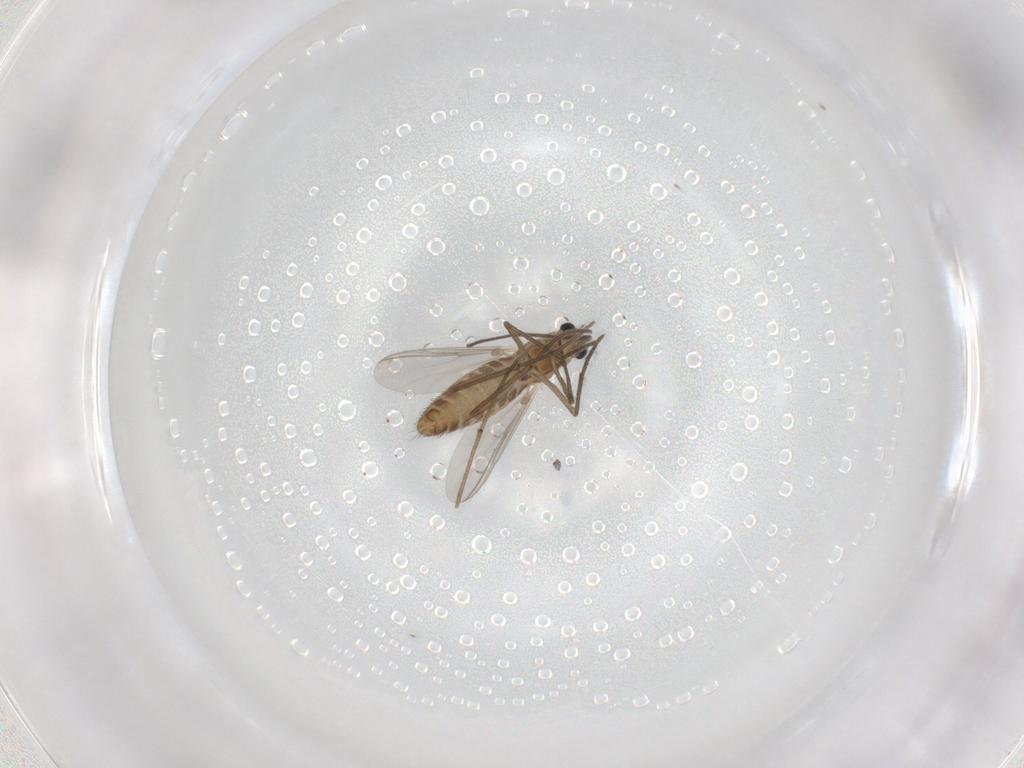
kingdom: Animalia
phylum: Arthropoda
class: Insecta
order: Diptera
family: Chironomidae
